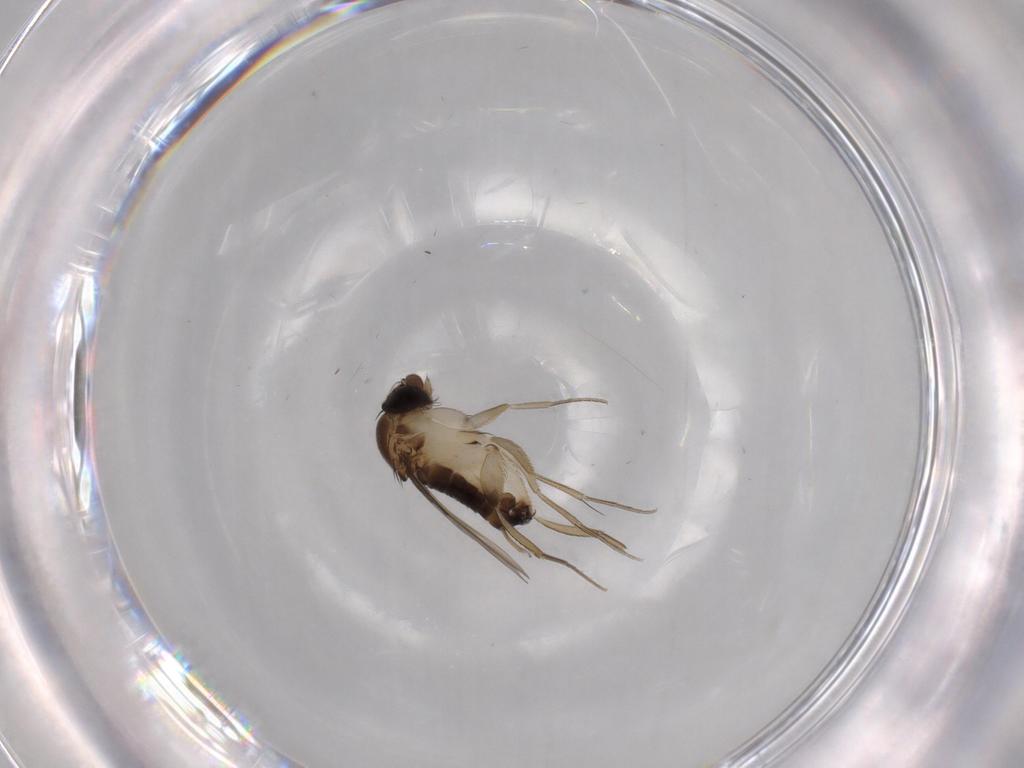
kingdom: Animalia
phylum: Arthropoda
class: Insecta
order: Diptera
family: Phoridae
